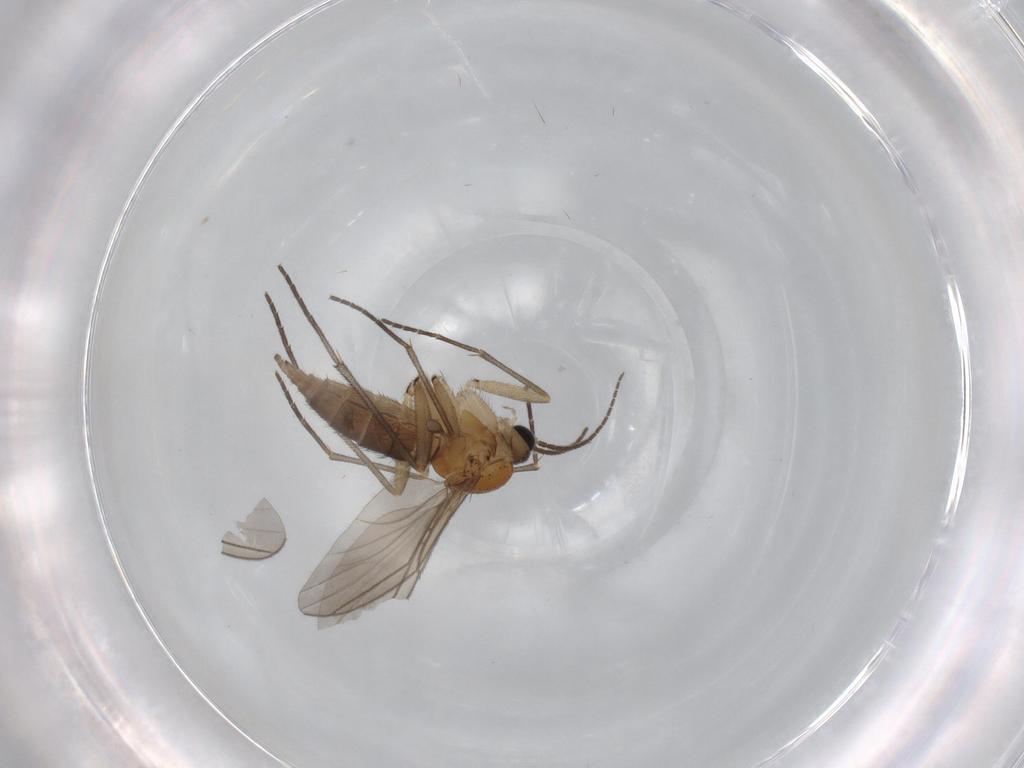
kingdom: Animalia
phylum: Arthropoda
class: Insecta
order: Diptera
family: Sciaridae
